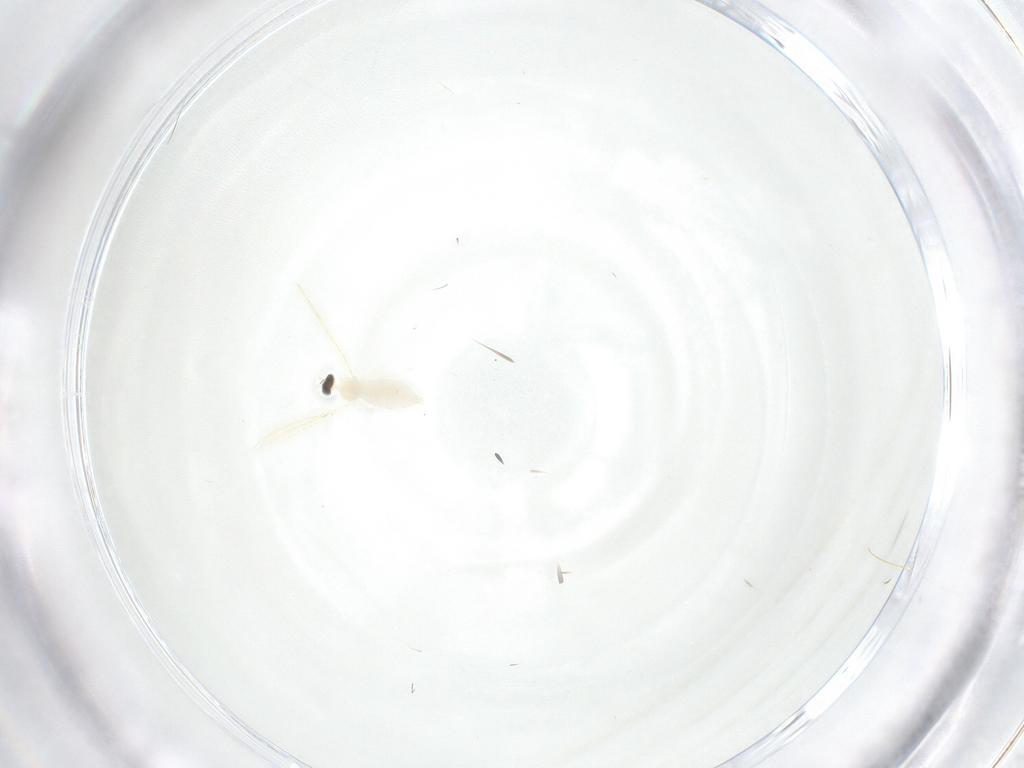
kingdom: Animalia
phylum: Arthropoda
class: Insecta
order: Diptera
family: Cecidomyiidae
